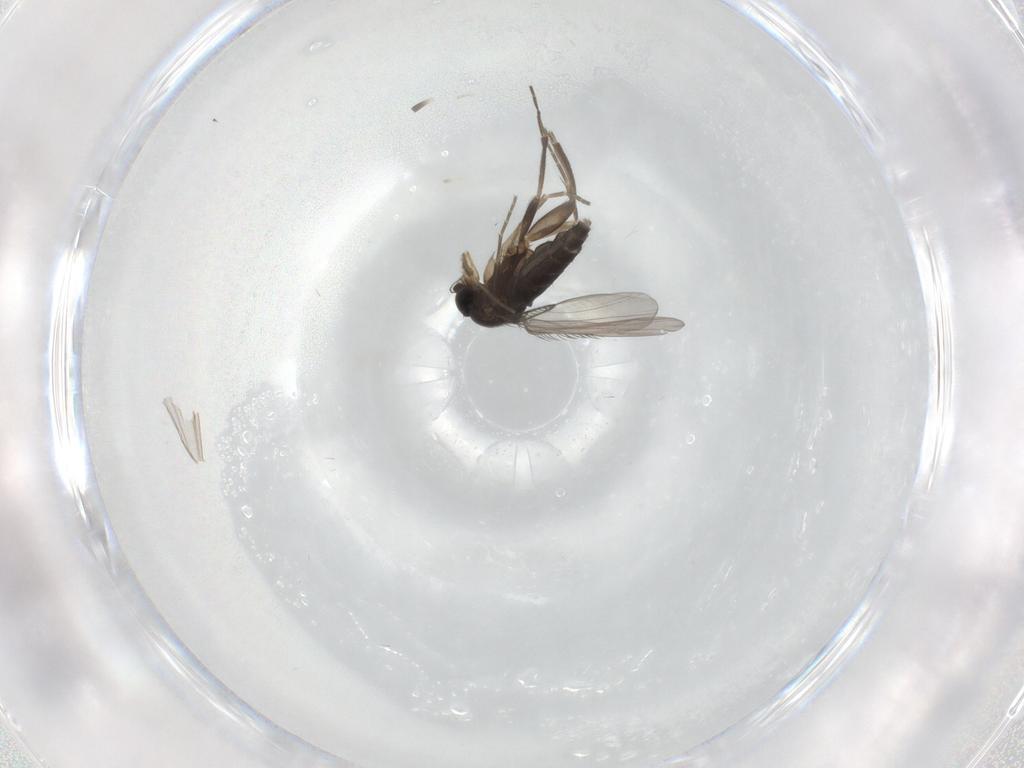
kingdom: Animalia
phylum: Arthropoda
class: Insecta
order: Diptera
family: Phoridae
